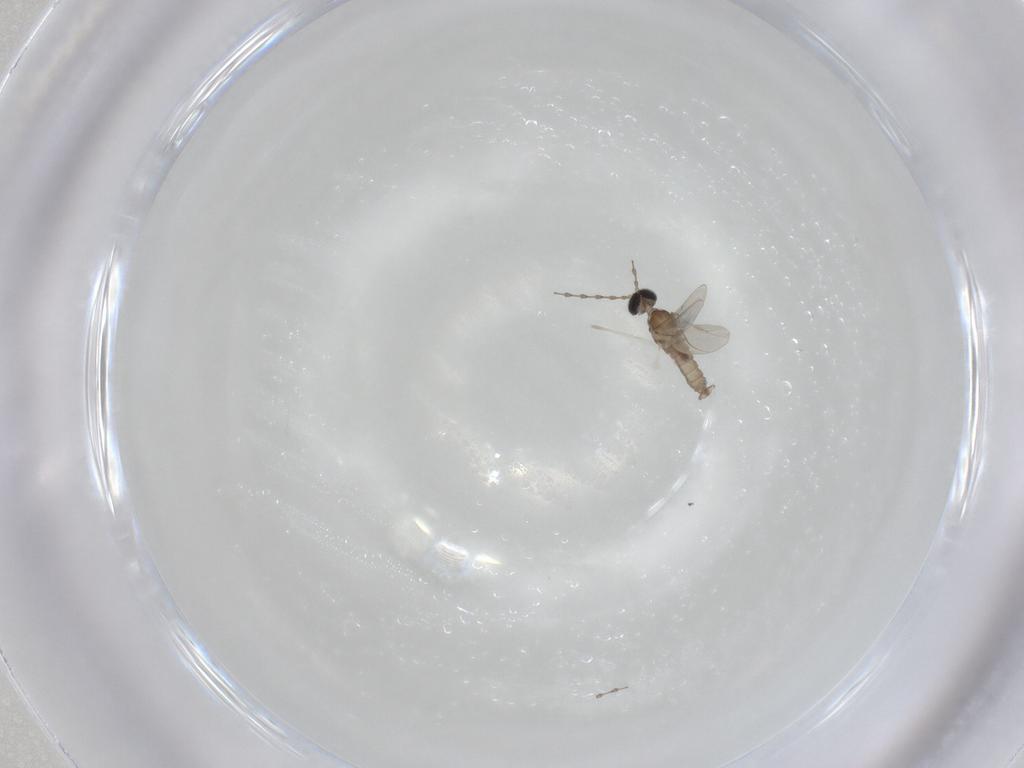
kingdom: Animalia
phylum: Arthropoda
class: Insecta
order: Diptera
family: Cecidomyiidae
